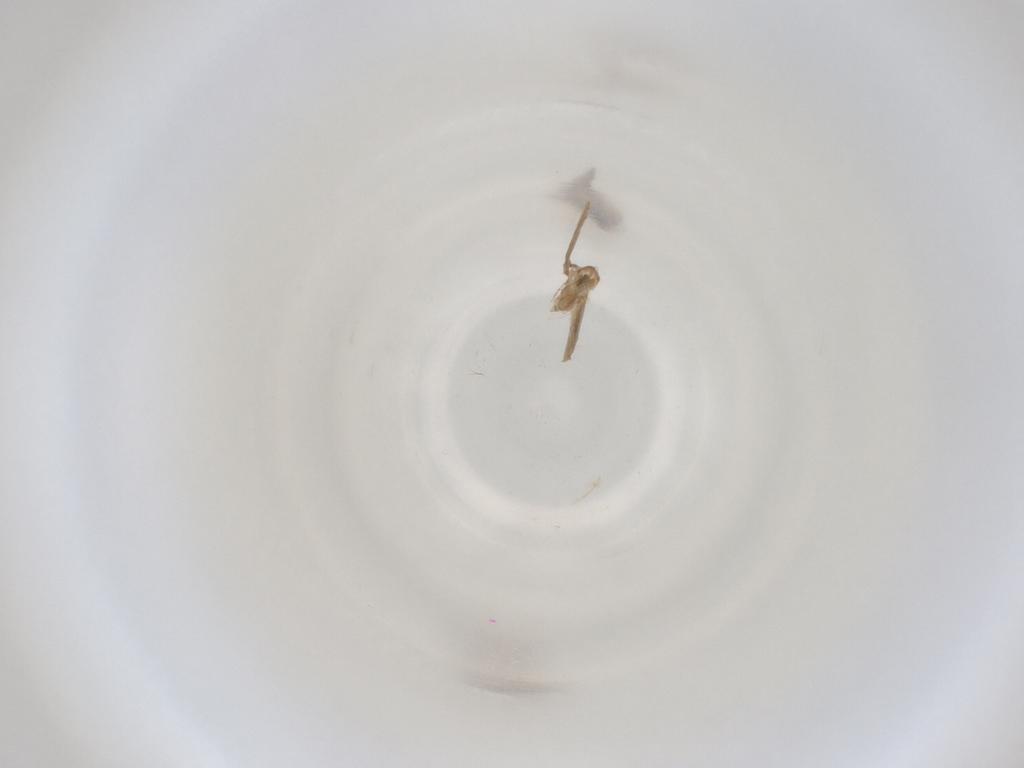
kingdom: Animalia
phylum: Arthropoda
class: Insecta
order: Diptera
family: Cecidomyiidae
